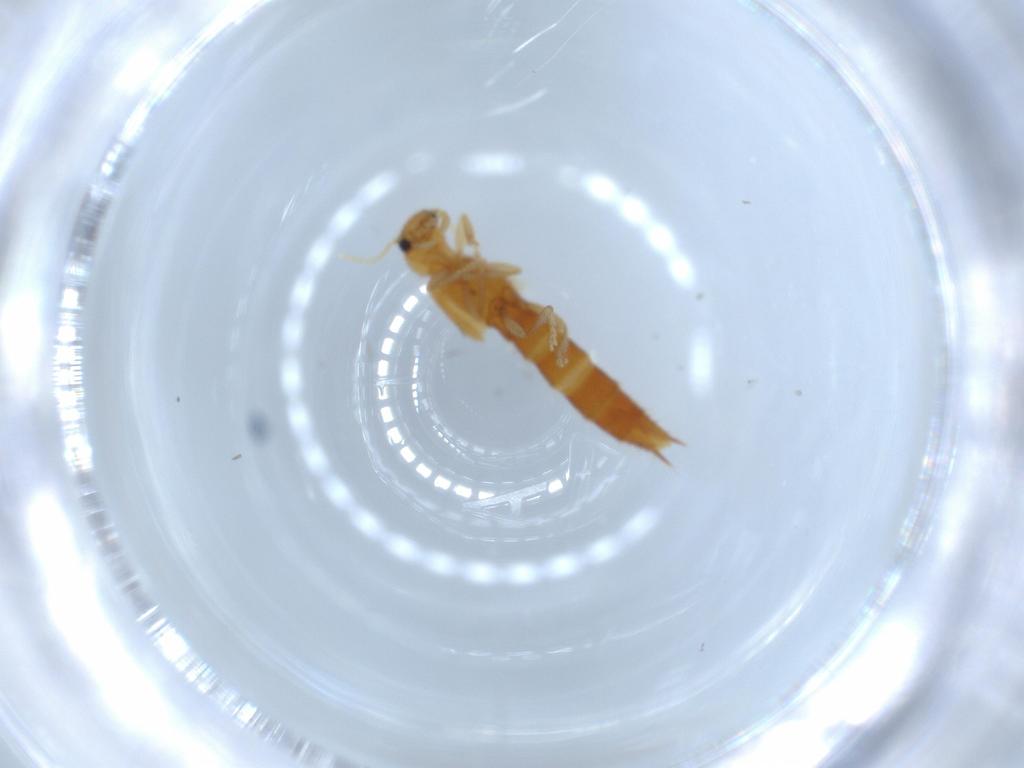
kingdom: Animalia
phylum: Arthropoda
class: Insecta
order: Coleoptera
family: Staphylinidae
